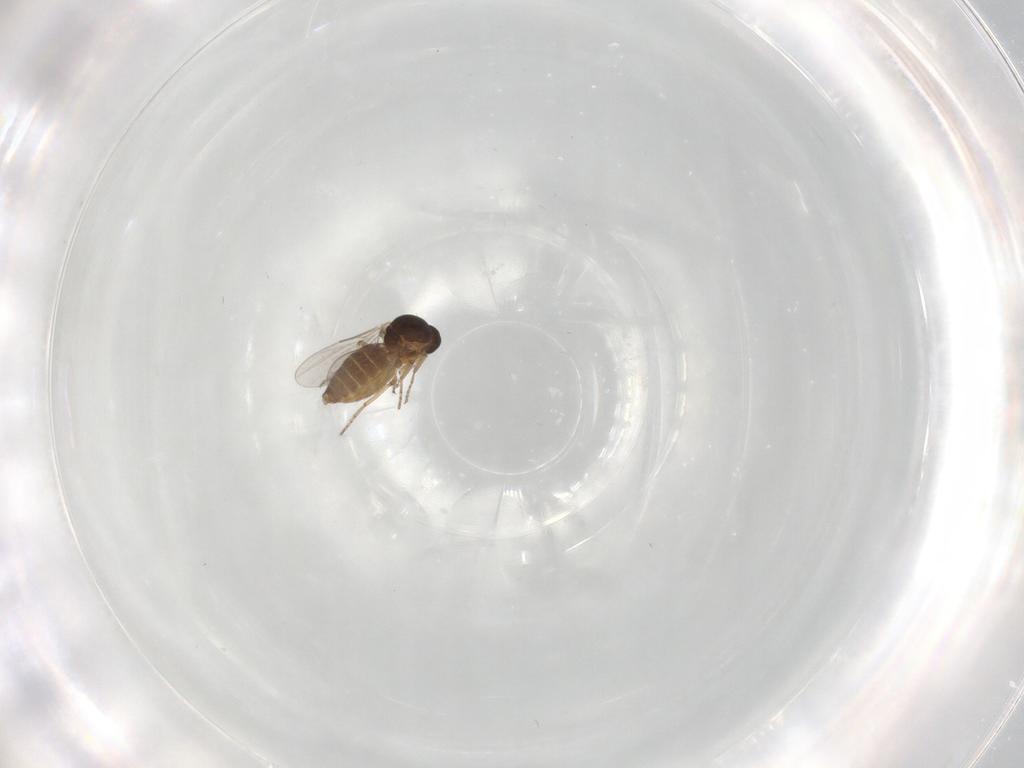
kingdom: Animalia
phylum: Arthropoda
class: Insecta
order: Diptera
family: Ceratopogonidae
